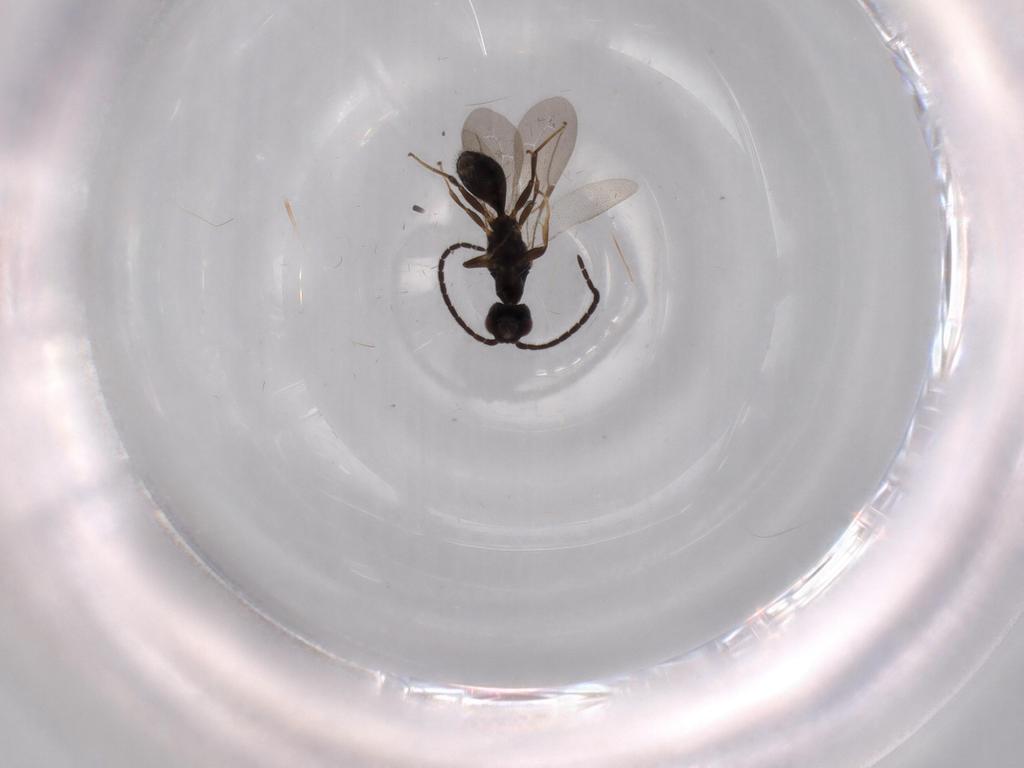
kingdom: Animalia
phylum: Arthropoda
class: Insecta
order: Hymenoptera
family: Bethylidae
